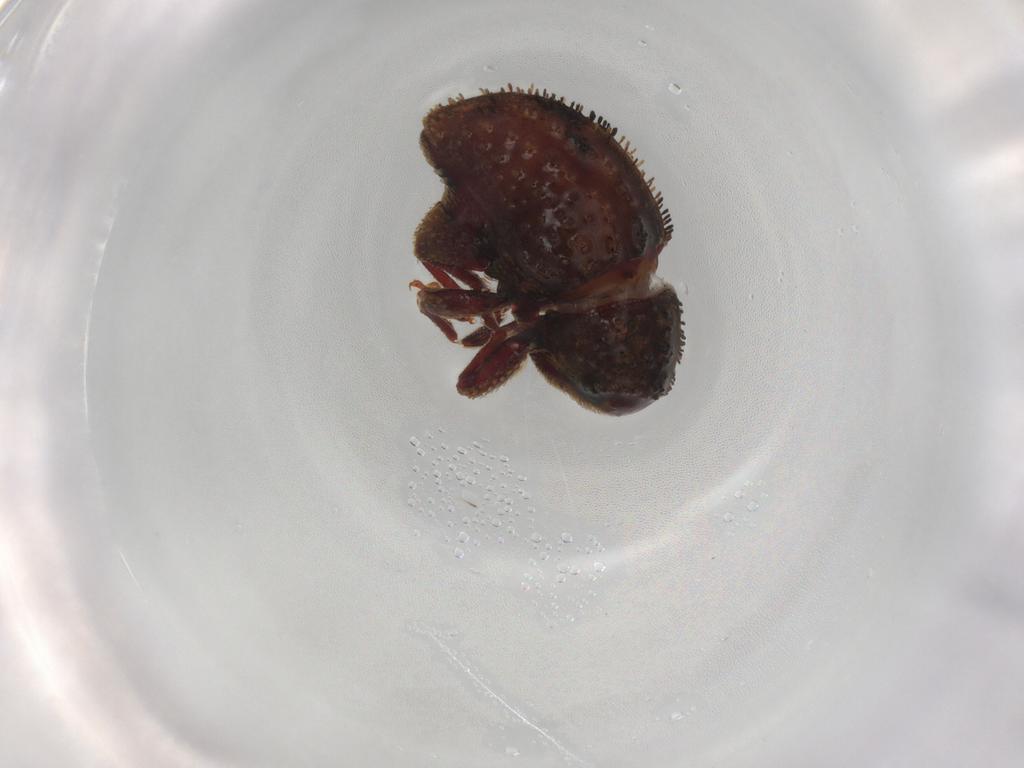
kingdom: Animalia
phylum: Arthropoda
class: Insecta
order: Coleoptera
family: Curculionidae
